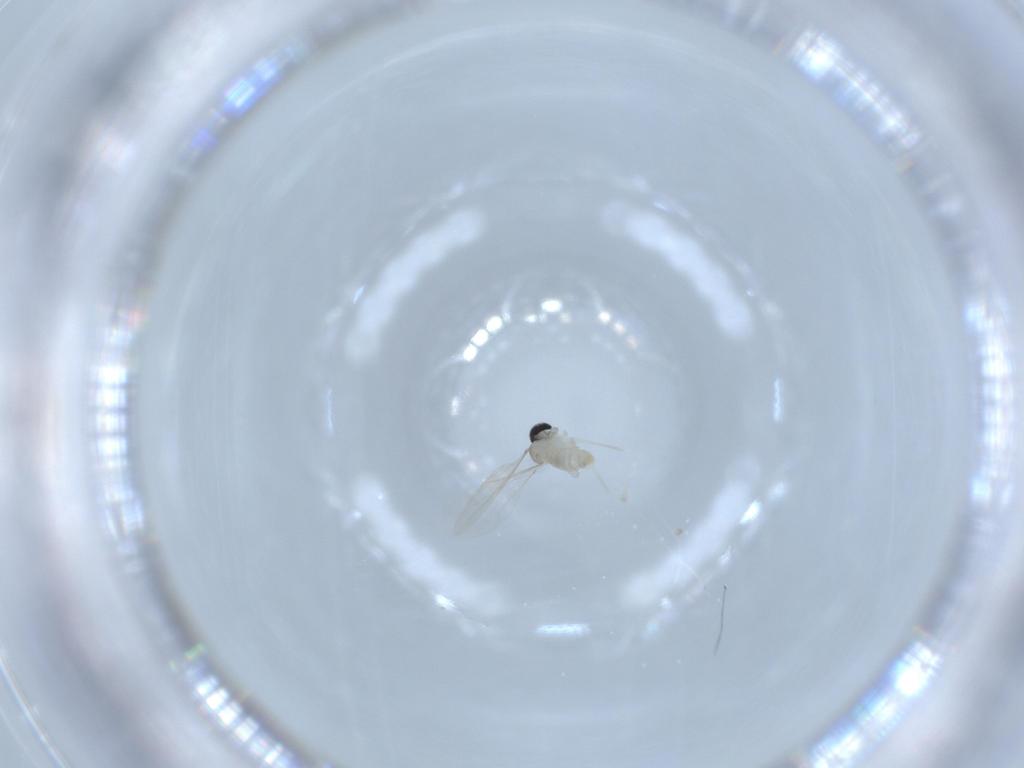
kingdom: Animalia
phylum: Arthropoda
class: Insecta
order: Diptera
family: Cecidomyiidae
